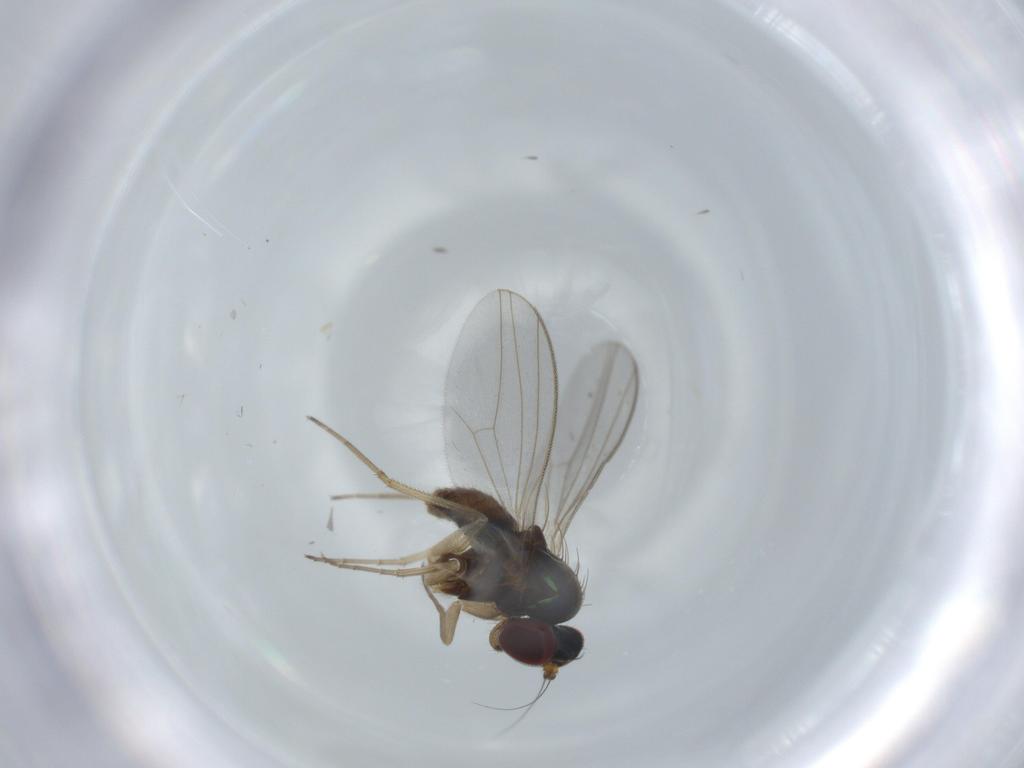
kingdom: Animalia
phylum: Arthropoda
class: Insecta
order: Diptera
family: Dolichopodidae
